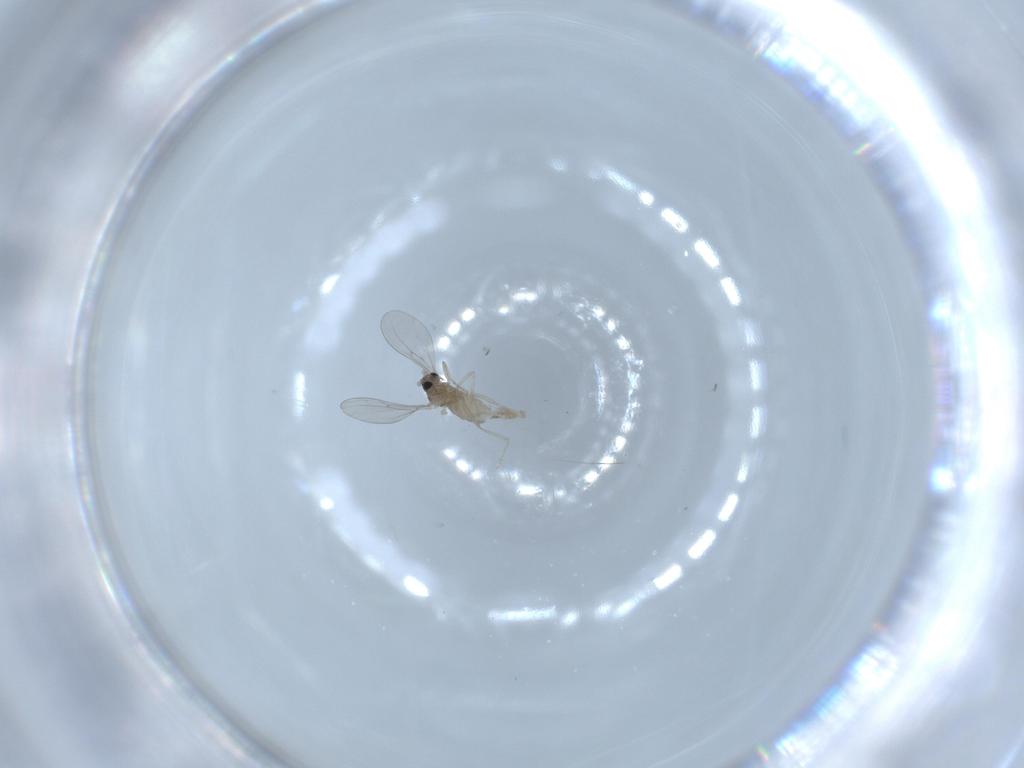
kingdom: Animalia
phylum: Arthropoda
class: Insecta
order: Diptera
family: Cecidomyiidae
